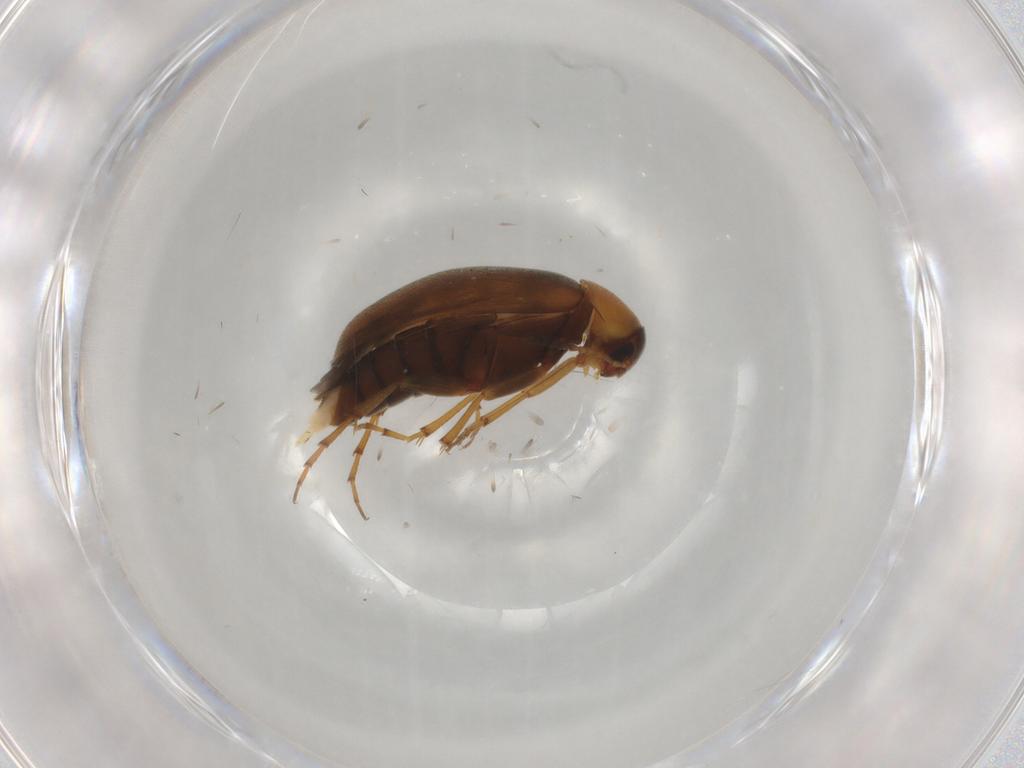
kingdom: Animalia
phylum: Arthropoda
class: Insecta
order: Coleoptera
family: Scraptiidae
